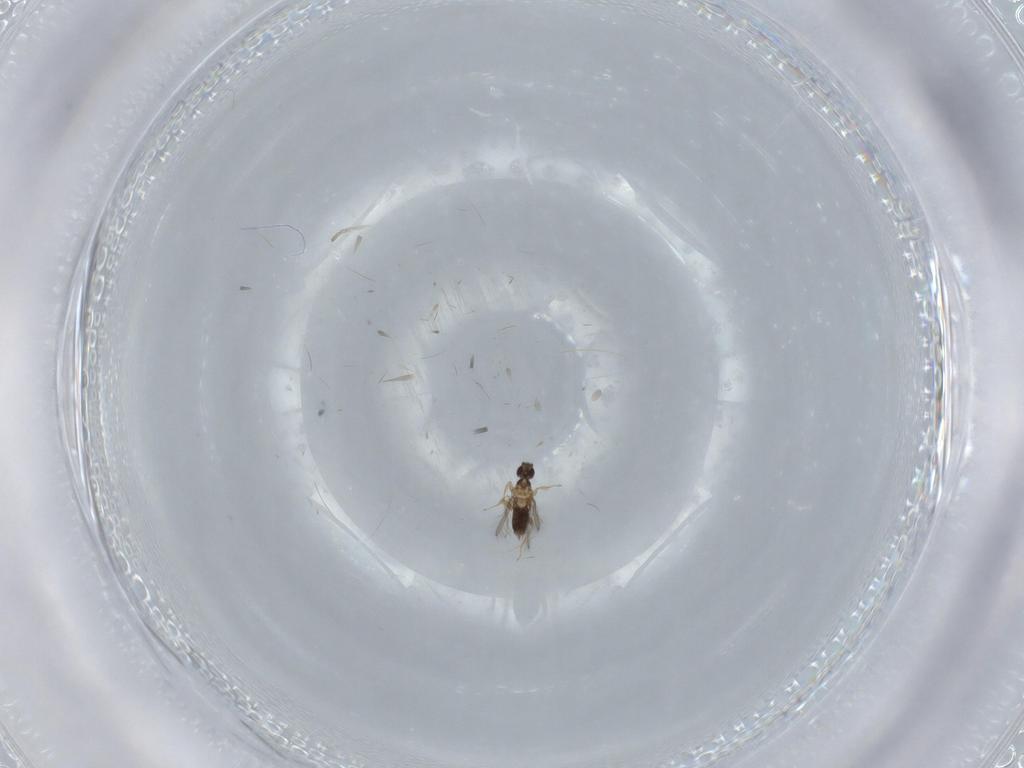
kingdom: Animalia
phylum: Arthropoda
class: Insecta
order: Hymenoptera
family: Mymaridae
